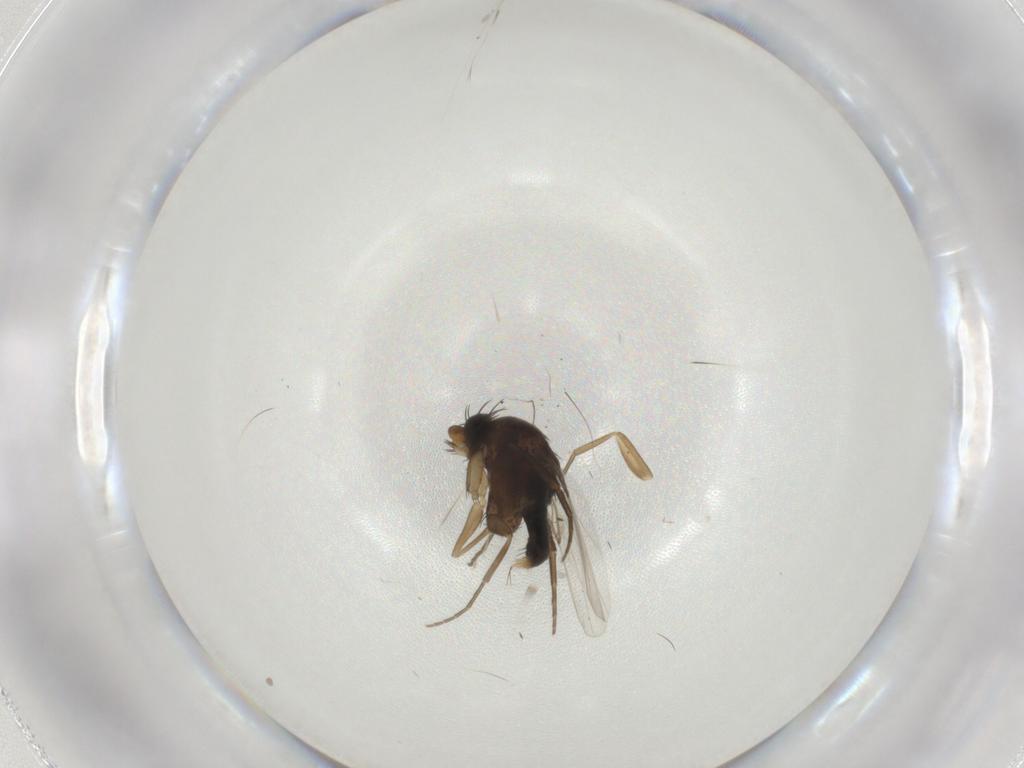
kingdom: Animalia
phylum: Arthropoda
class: Insecta
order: Diptera
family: Phoridae
